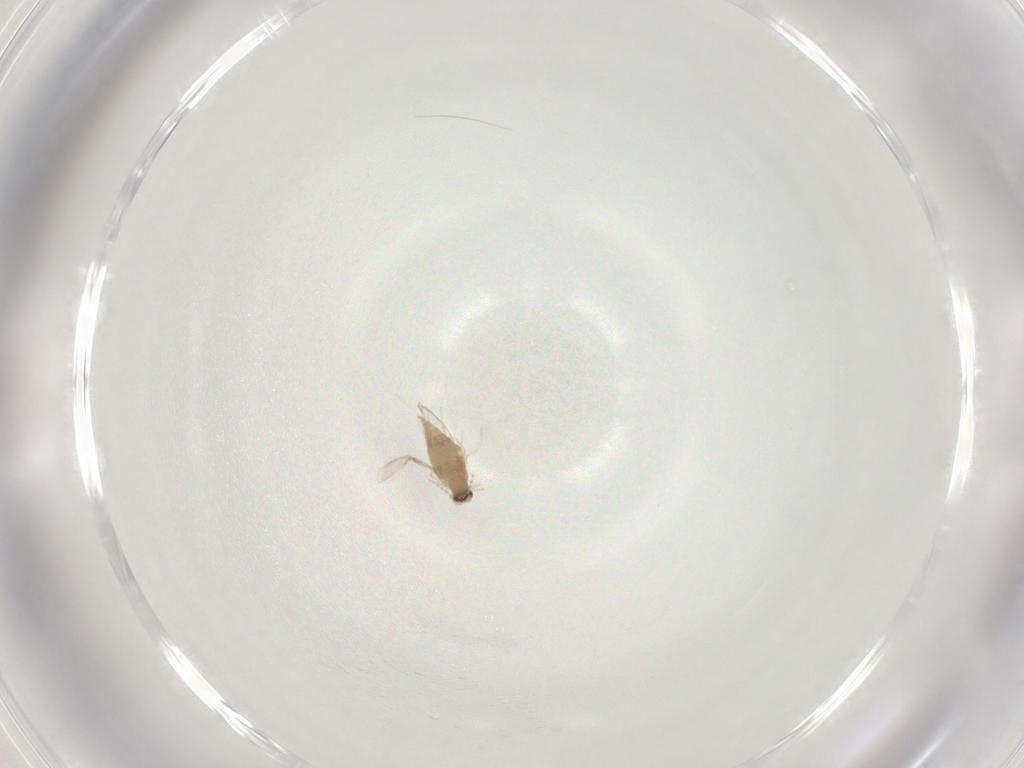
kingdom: Animalia
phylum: Arthropoda
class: Insecta
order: Diptera
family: Cecidomyiidae
